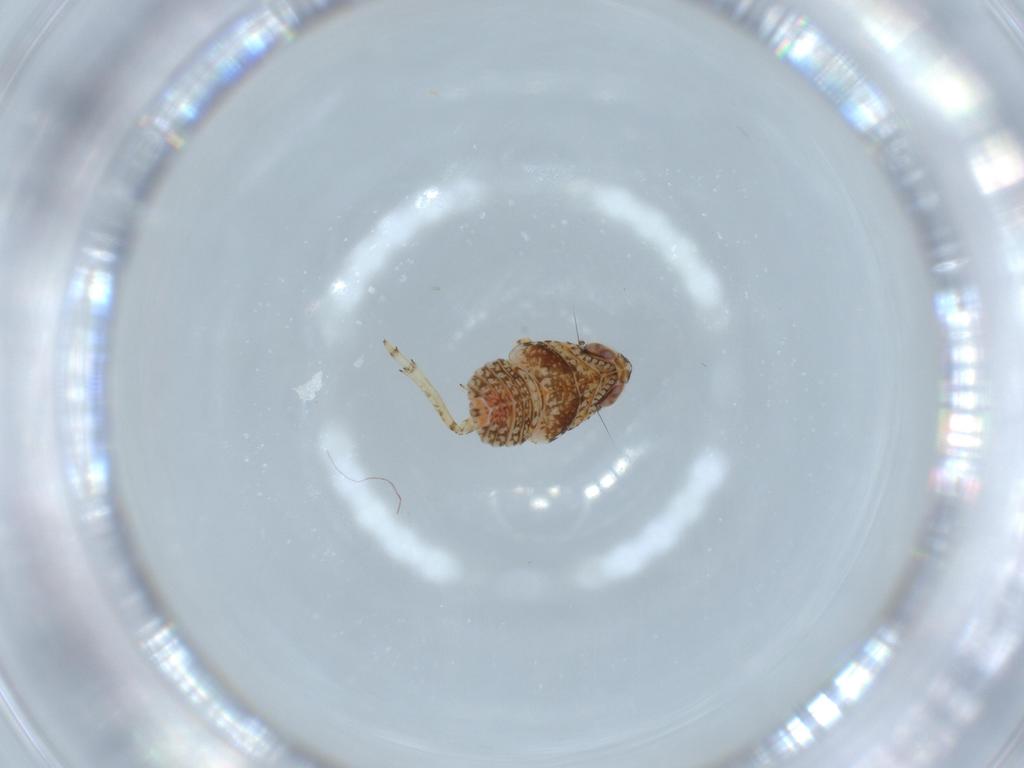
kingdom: Animalia
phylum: Arthropoda
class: Insecta
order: Hemiptera
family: Issidae
